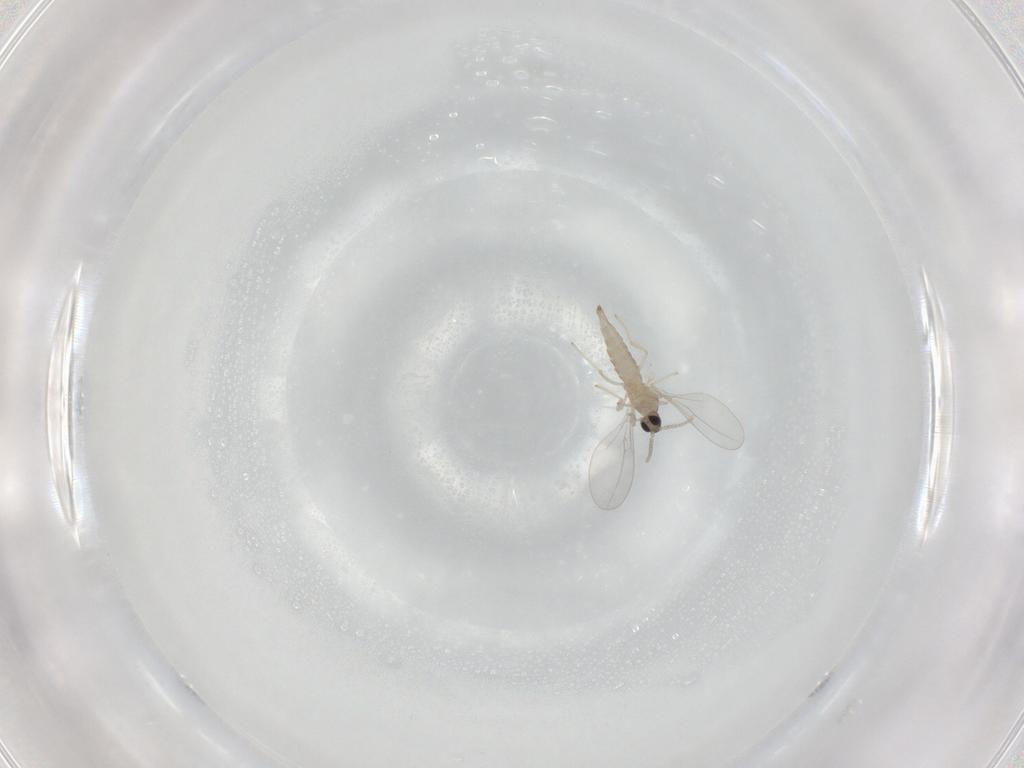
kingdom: Animalia
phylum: Arthropoda
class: Insecta
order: Diptera
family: Cecidomyiidae
